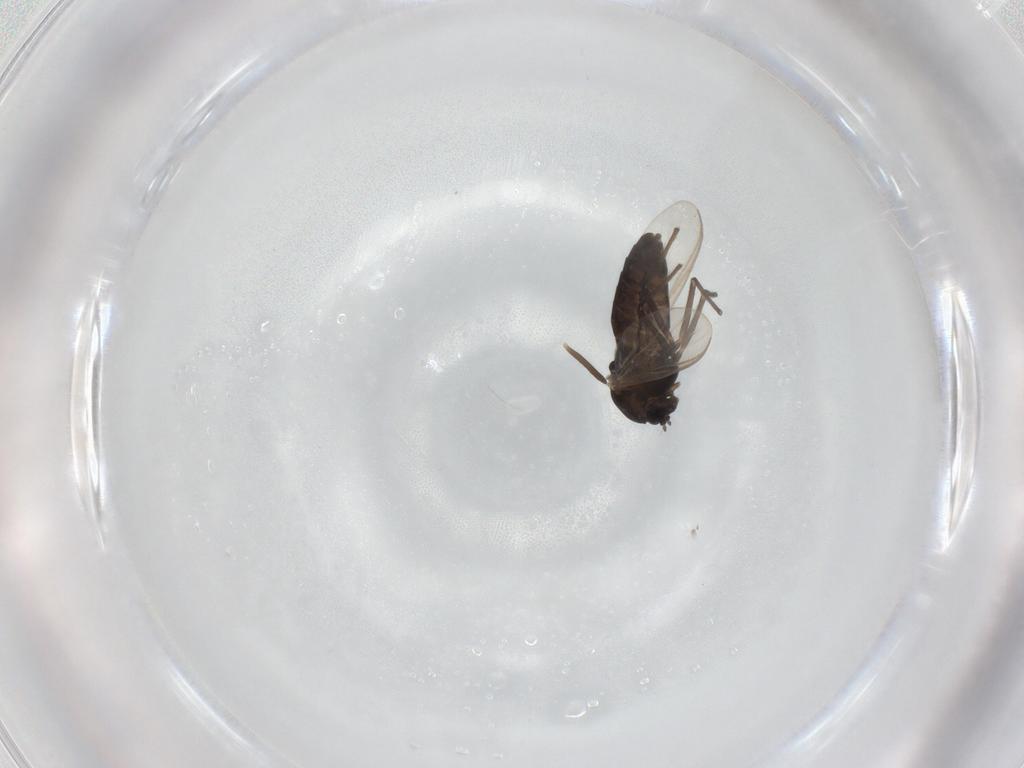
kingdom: Animalia
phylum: Arthropoda
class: Insecta
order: Diptera
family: Chironomidae
